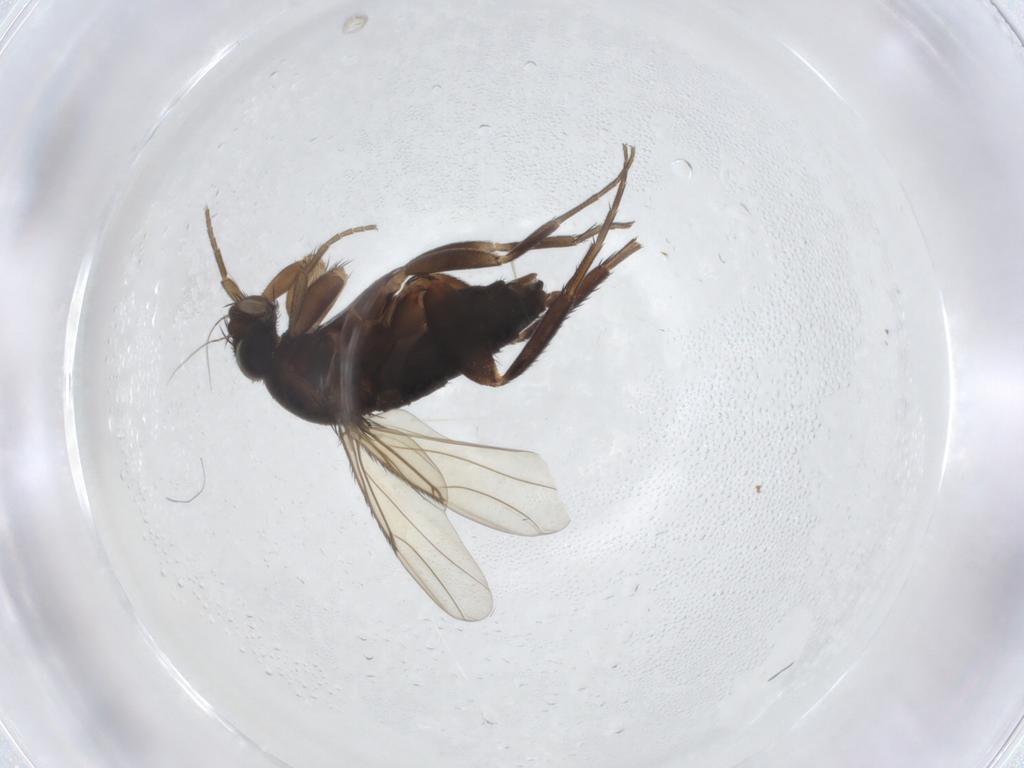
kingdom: Animalia
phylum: Arthropoda
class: Insecta
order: Diptera
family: Phoridae
